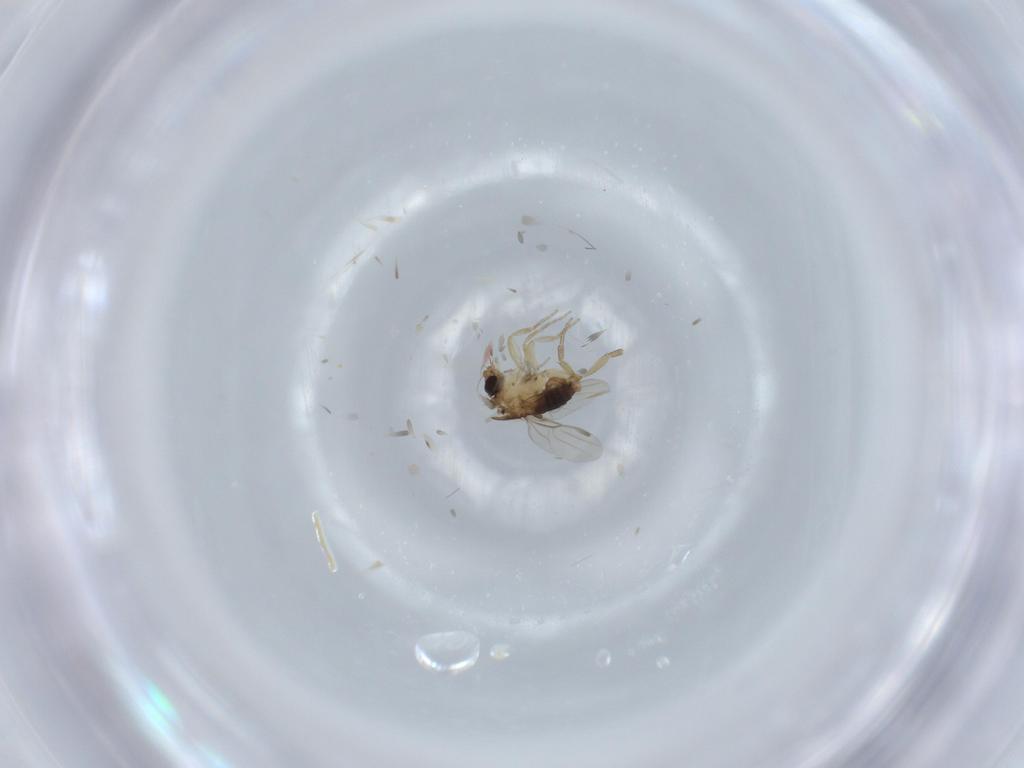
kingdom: Animalia
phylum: Arthropoda
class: Insecta
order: Diptera
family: Phoridae
